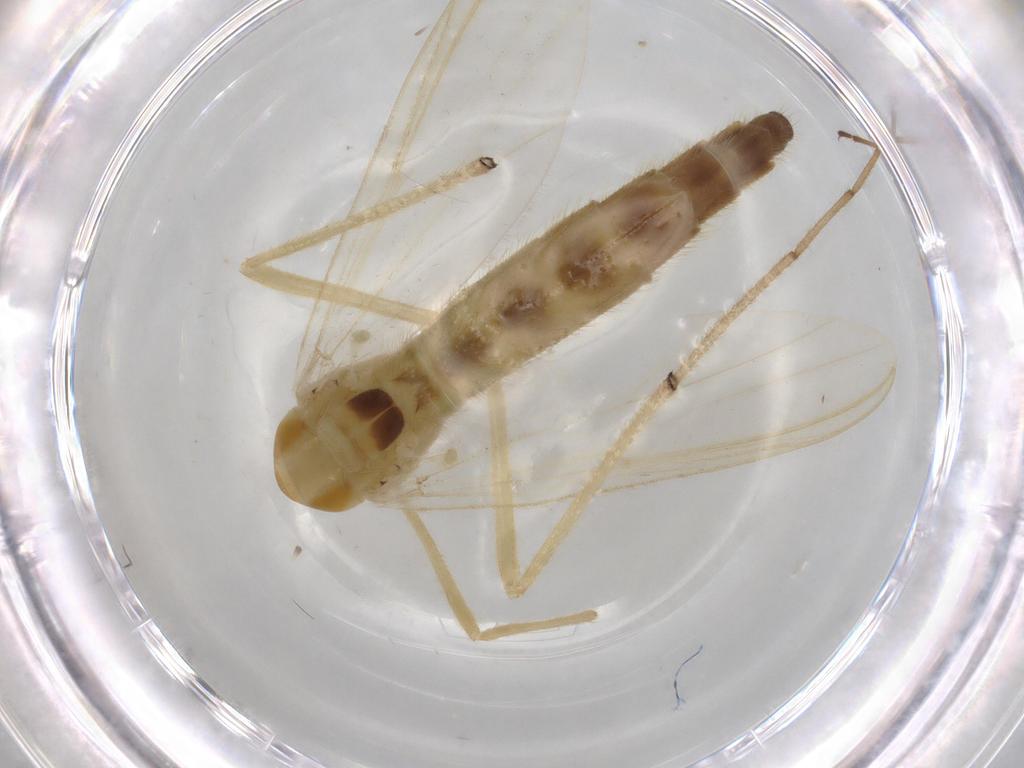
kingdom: Animalia
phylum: Arthropoda
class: Insecta
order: Diptera
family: Chironomidae
